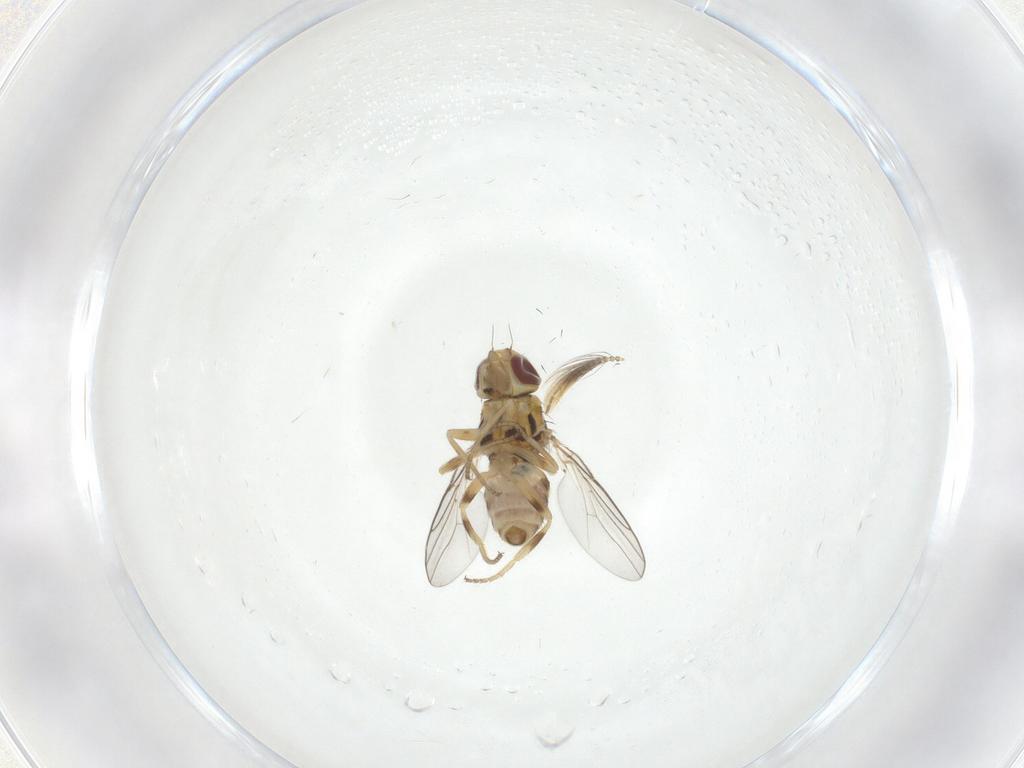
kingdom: Animalia
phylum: Arthropoda
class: Insecta
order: Diptera
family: Chloropidae
